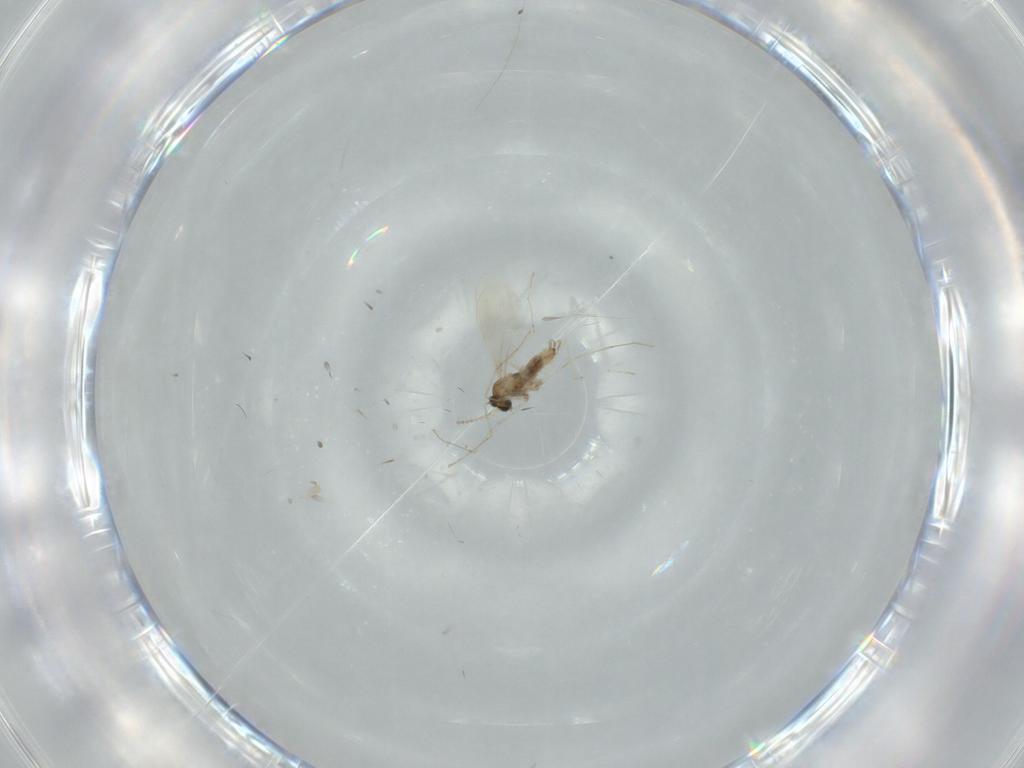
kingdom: Animalia
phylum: Arthropoda
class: Insecta
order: Diptera
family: Cecidomyiidae
